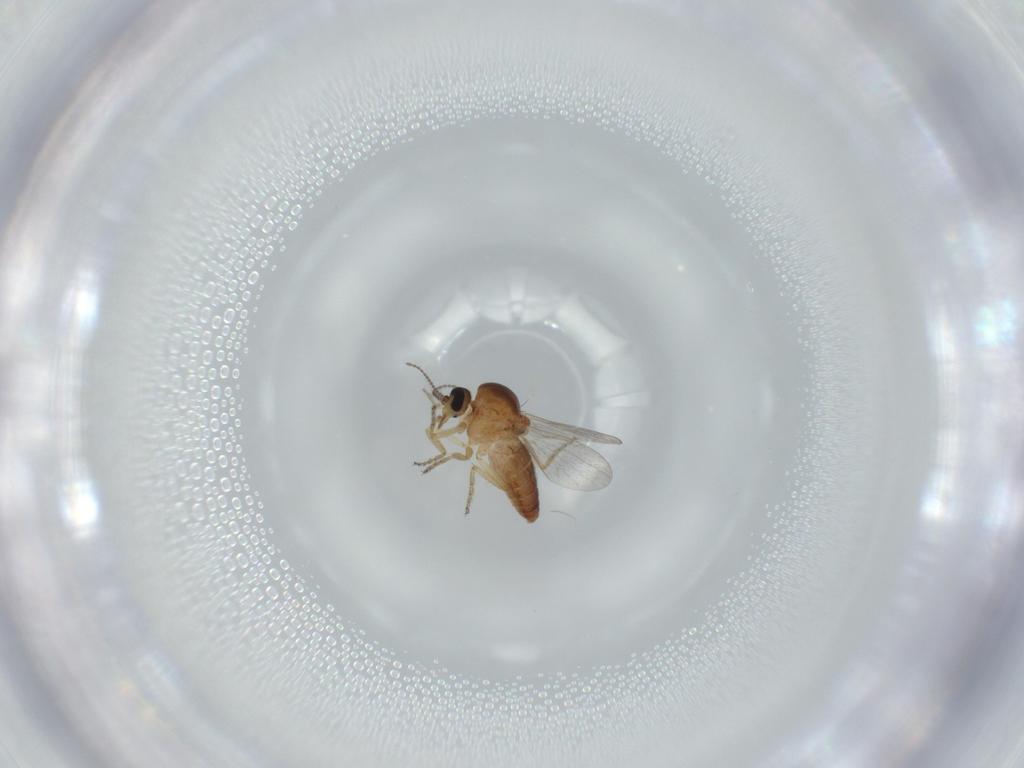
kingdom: Animalia
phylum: Arthropoda
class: Insecta
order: Diptera
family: Ceratopogonidae
